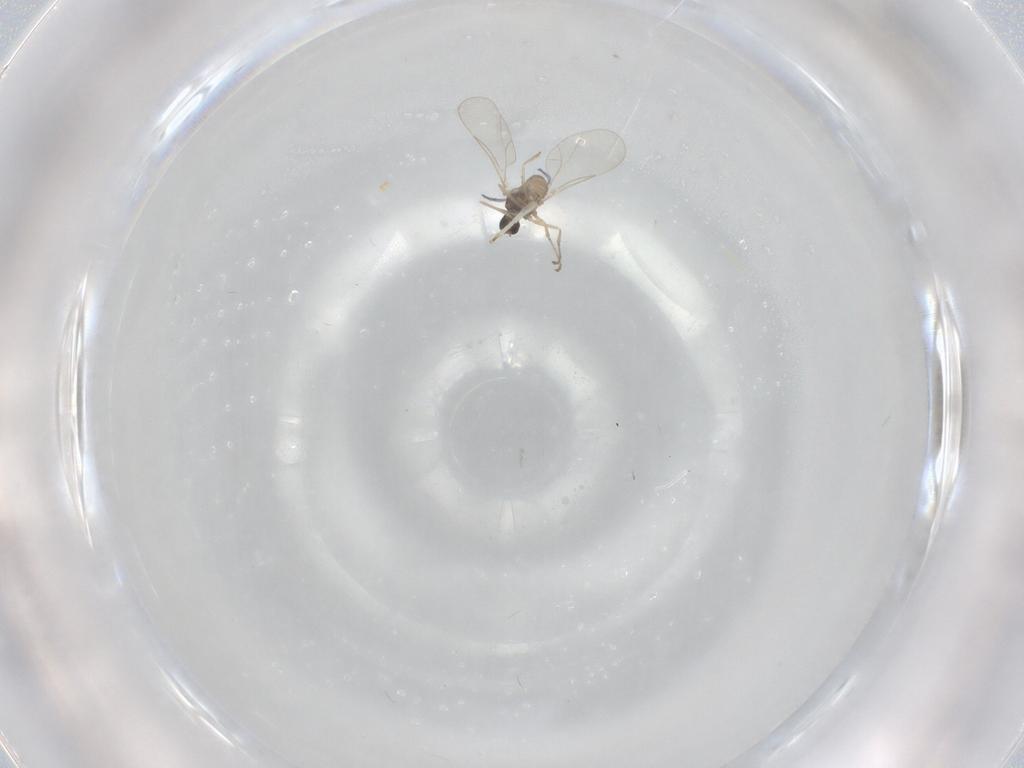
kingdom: Animalia
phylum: Arthropoda
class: Insecta
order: Diptera
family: Cecidomyiidae
